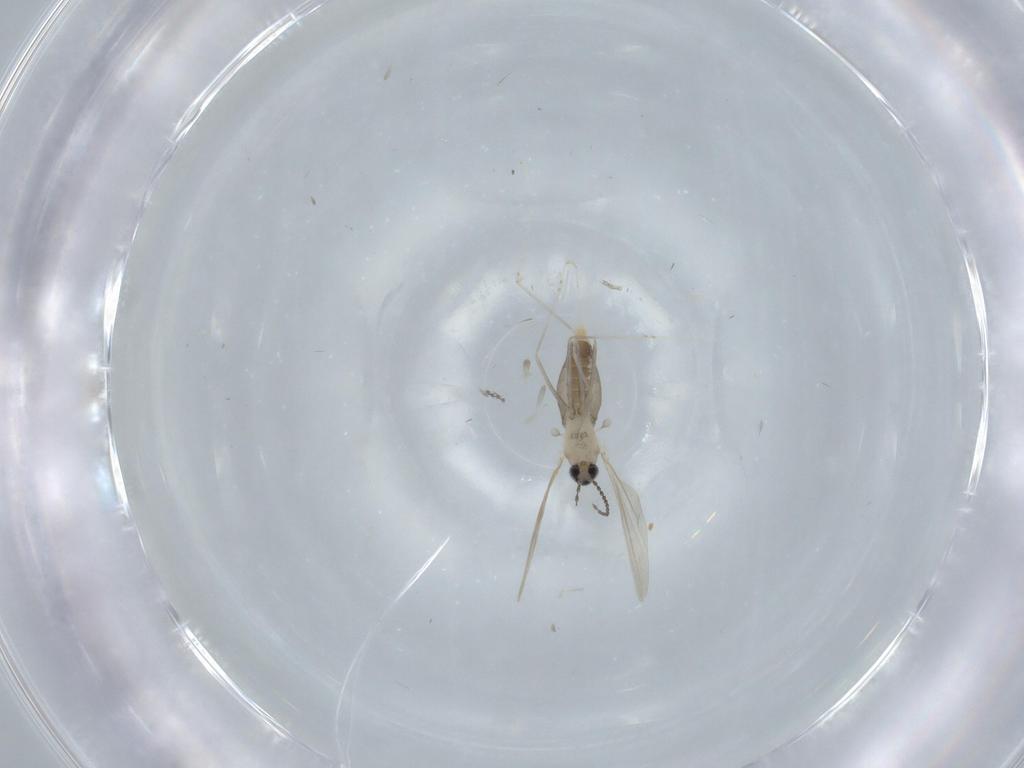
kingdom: Animalia
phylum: Arthropoda
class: Insecta
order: Diptera
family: Cecidomyiidae
